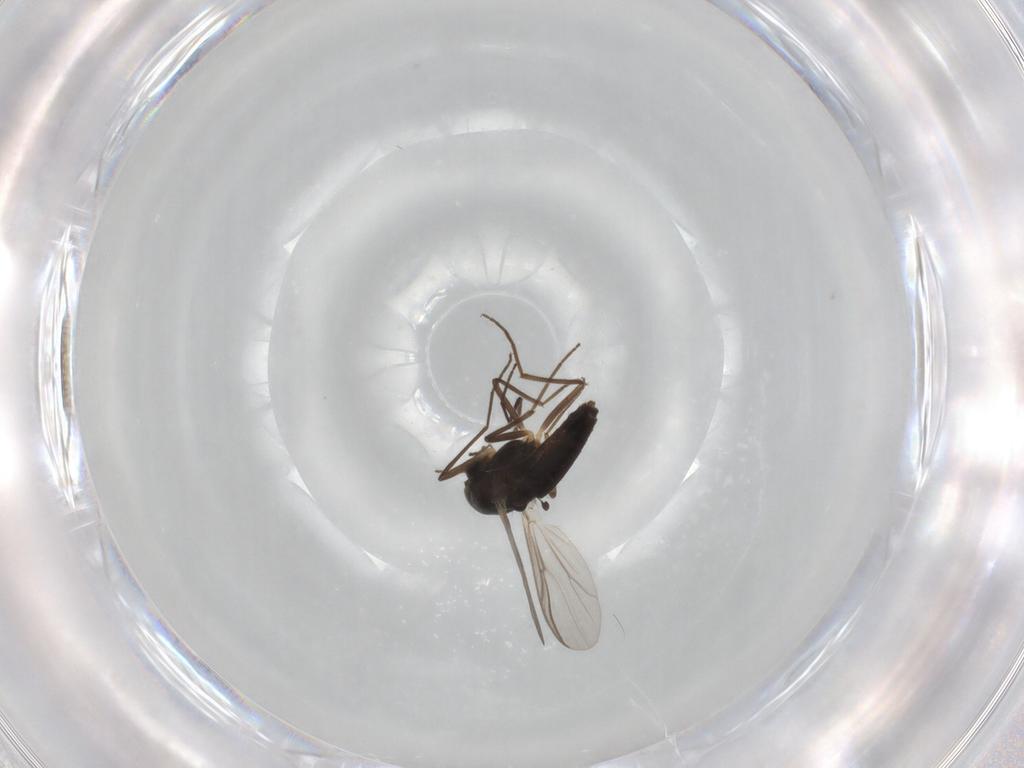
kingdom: Animalia
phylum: Arthropoda
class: Insecta
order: Diptera
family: Chironomidae
